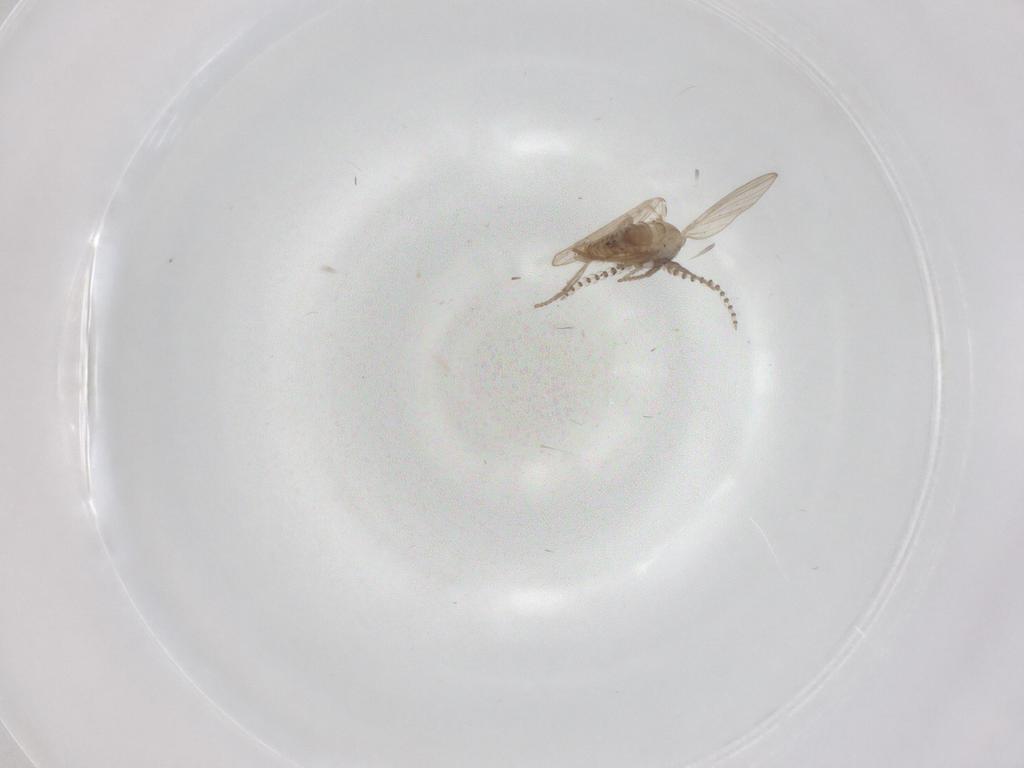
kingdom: Animalia
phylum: Arthropoda
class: Insecta
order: Diptera
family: Psychodidae
